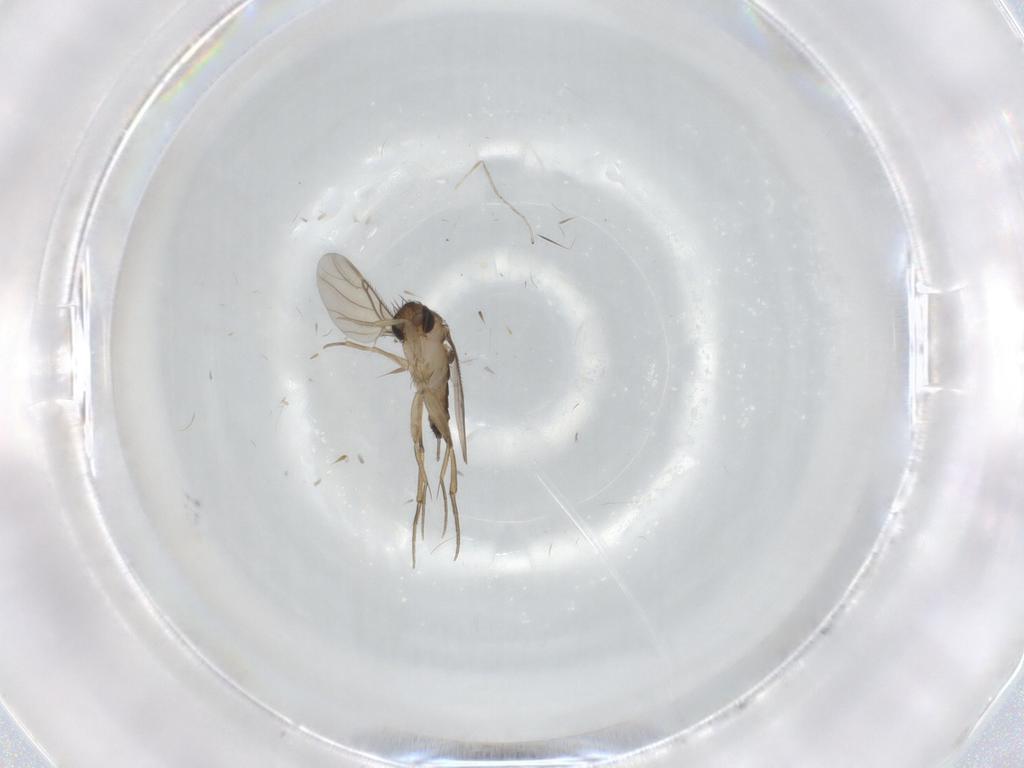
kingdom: Animalia
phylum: Arthropoda
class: Insecta
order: Diptera
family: Phoridae
